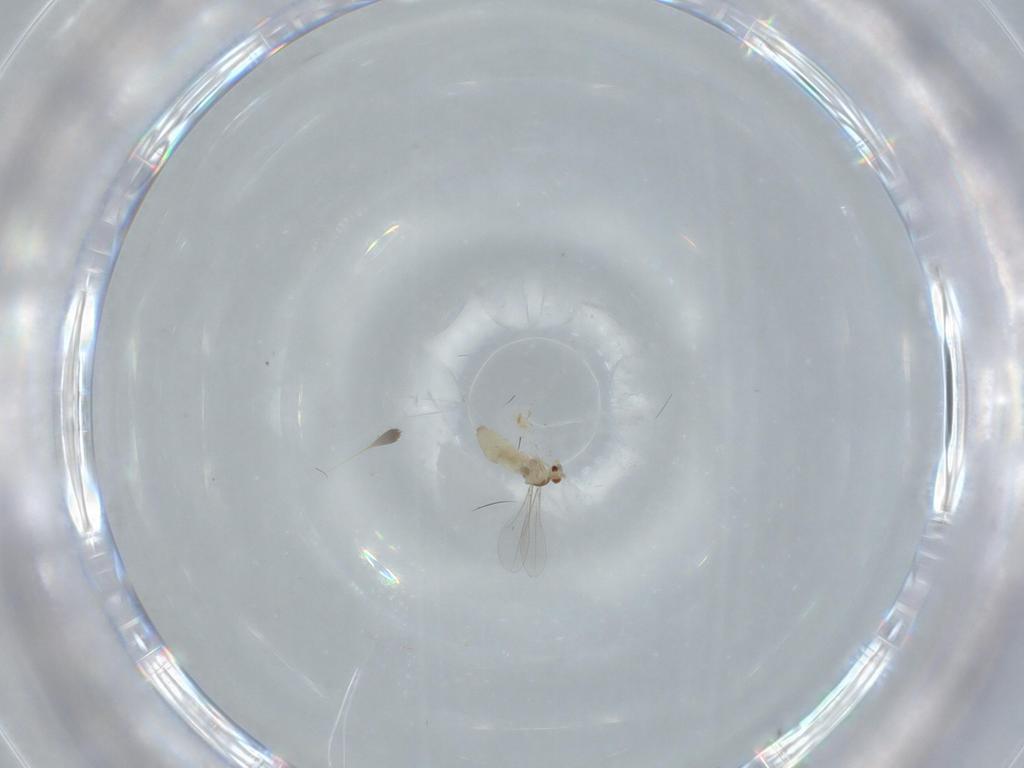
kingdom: Animalia
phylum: Arthropoda
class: Insecta
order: Diptera
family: Cecidomyiidae
